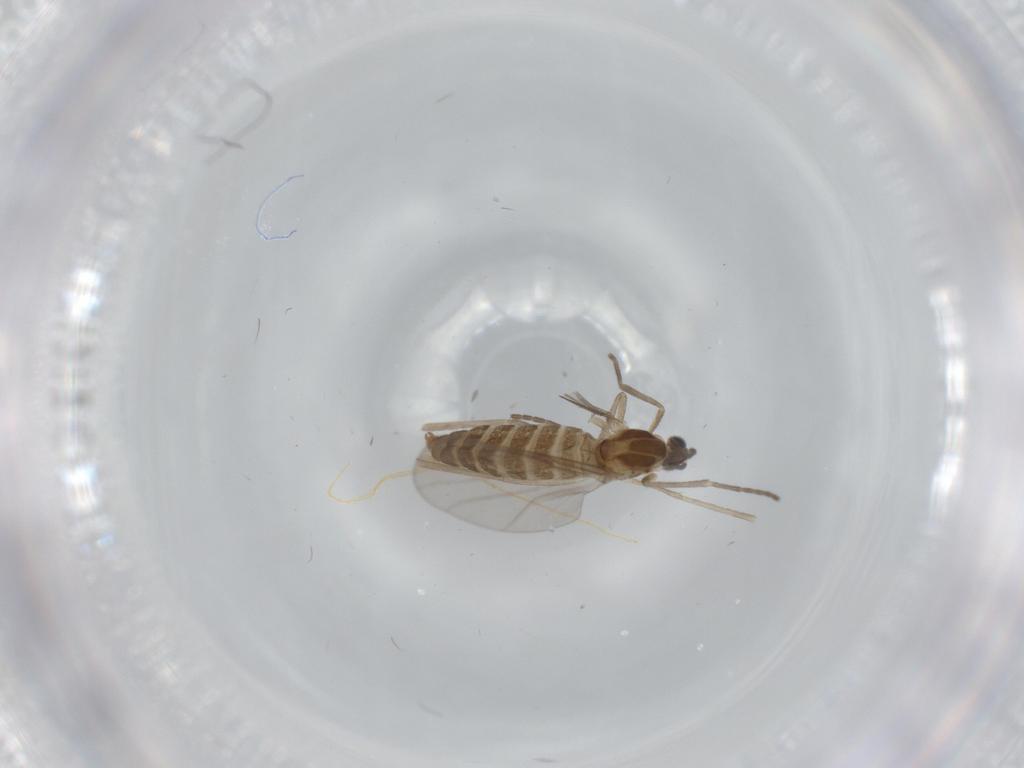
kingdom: Animalia
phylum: Arthropoda
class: Insecta
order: Diptera
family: Cecidomyiidae
